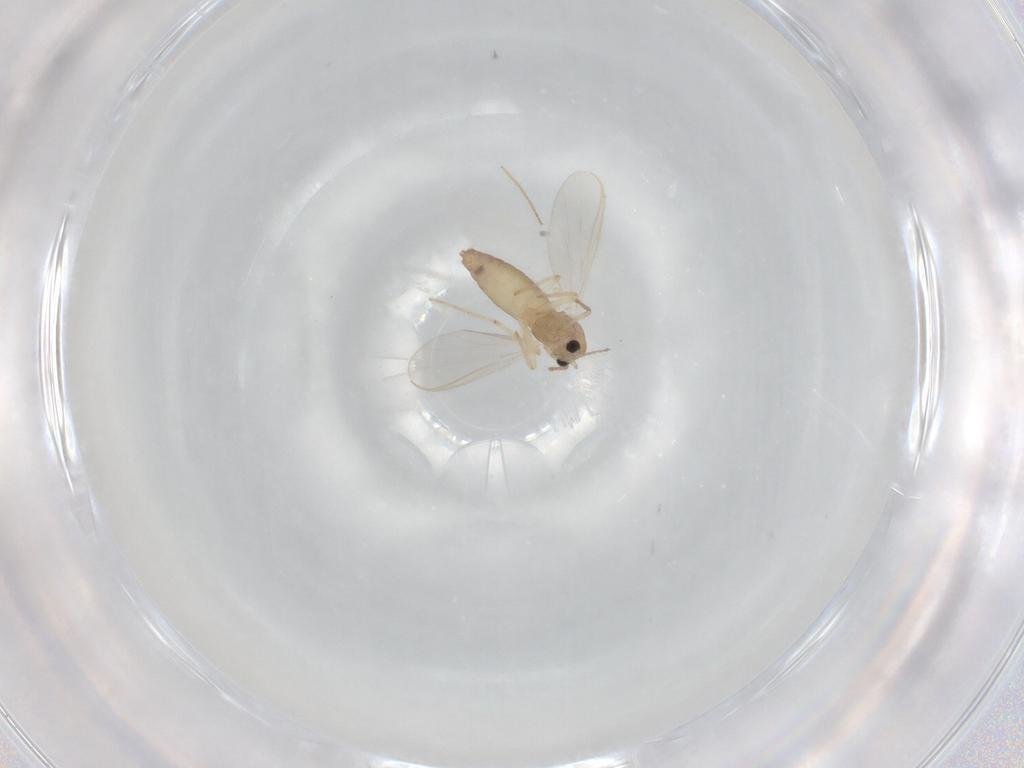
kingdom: Animalia
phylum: Arthropoda
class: Insecta
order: Diptera
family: Chironomidae
